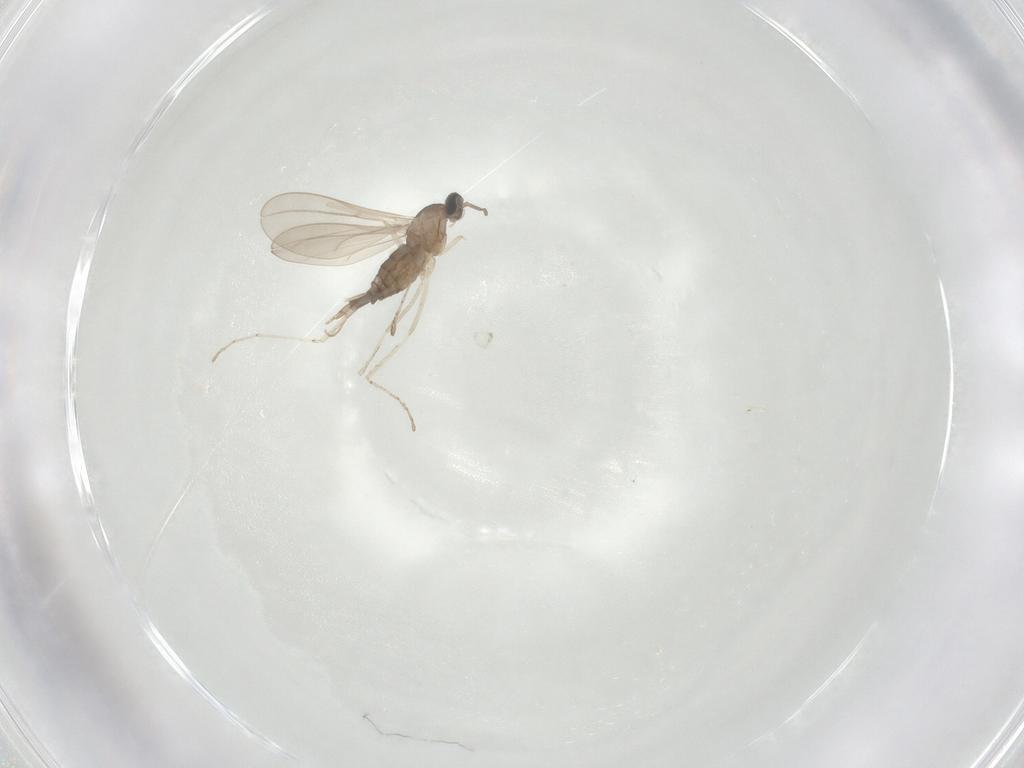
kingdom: Animalia
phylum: Arthropoda
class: Insecta
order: Diptera
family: Cecidomyiidae
